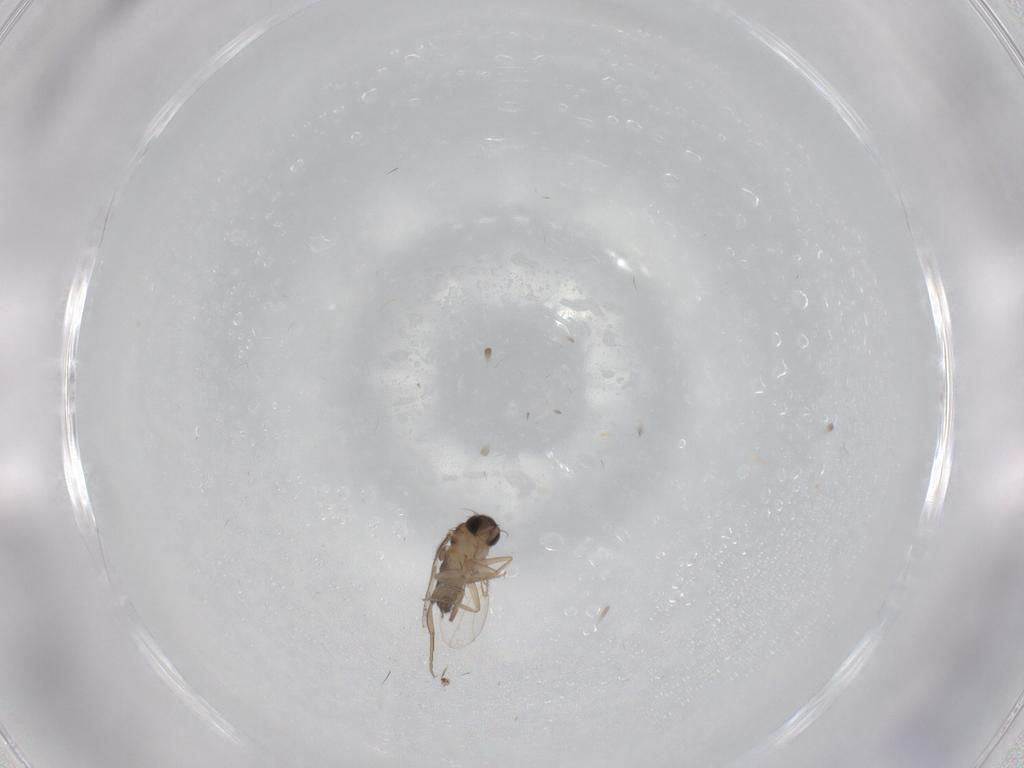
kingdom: Animalia
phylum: Arthropoda
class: Insecta
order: Diptera
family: Phoridae
